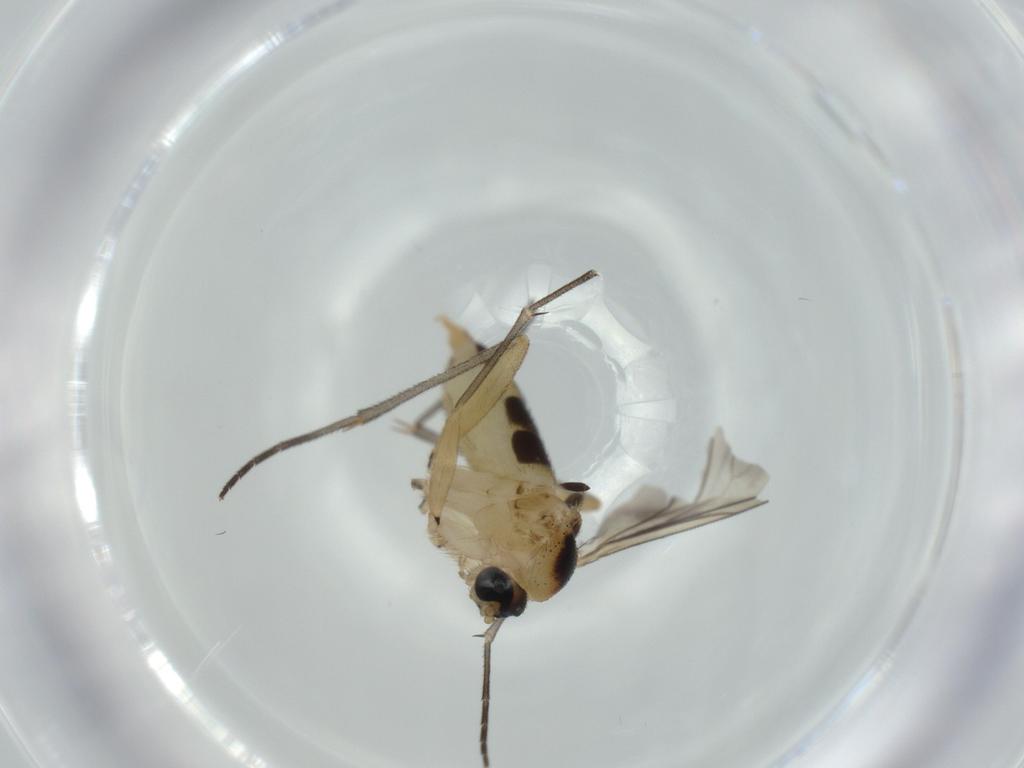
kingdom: Animalia
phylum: Arthropoda
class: Insecta
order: Diptera
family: Sciaridae
